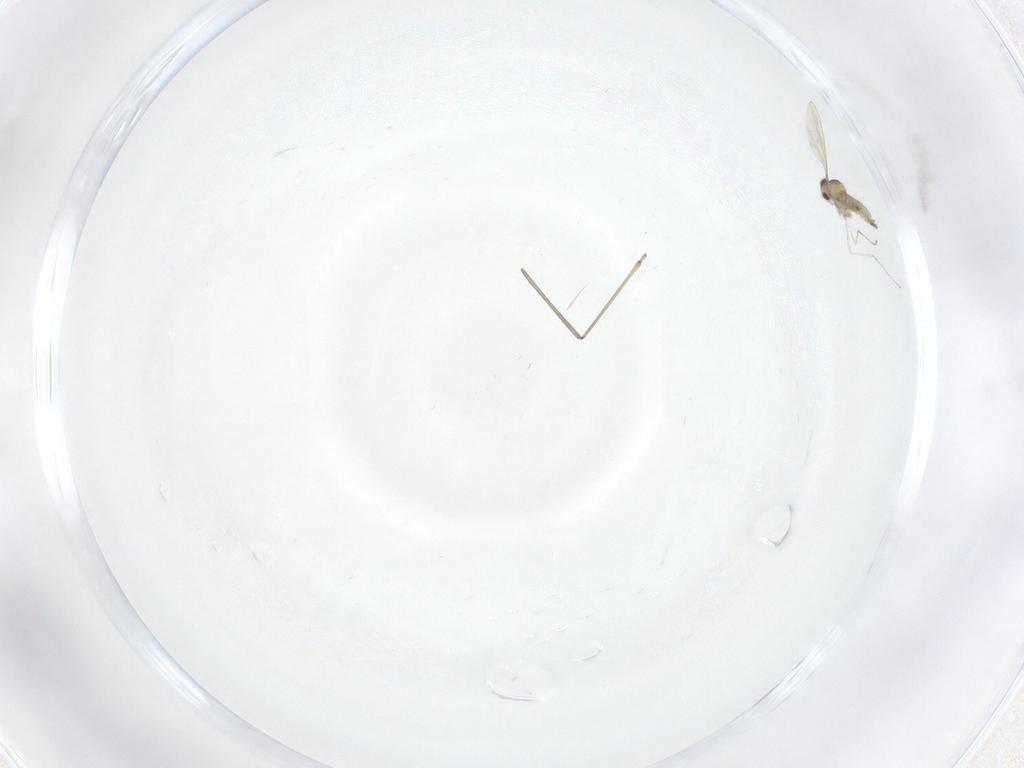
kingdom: Animalia
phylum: Arthropoda
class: Insecta
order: Diptera
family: Cecidomyiidae
